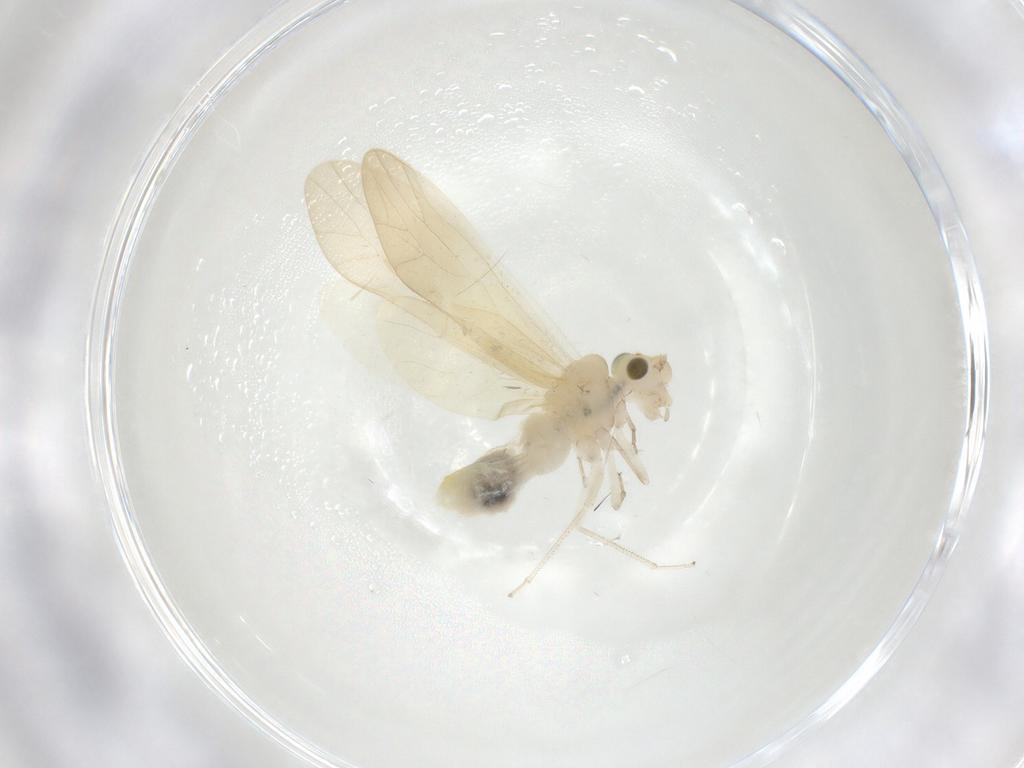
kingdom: Animalia
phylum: Arthropoda
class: Insecta
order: Psocodea
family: Caeciliusidae
